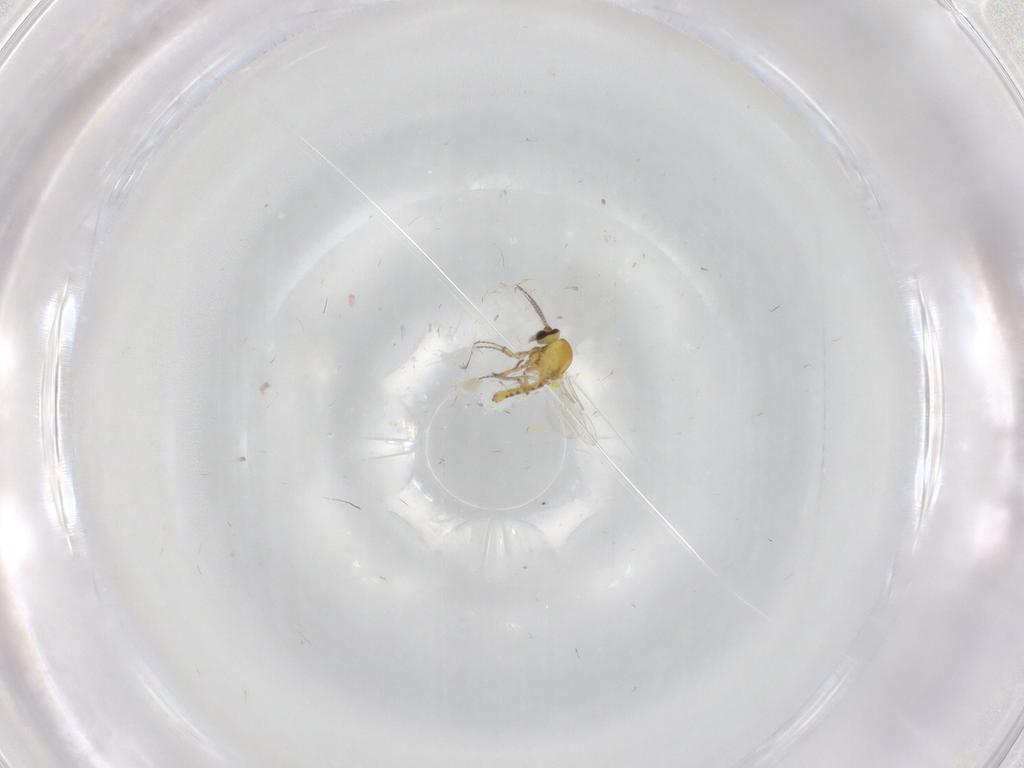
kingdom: Animalia
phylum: Arthropoda
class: Insecta
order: Diptera
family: Ceratopogonidae
